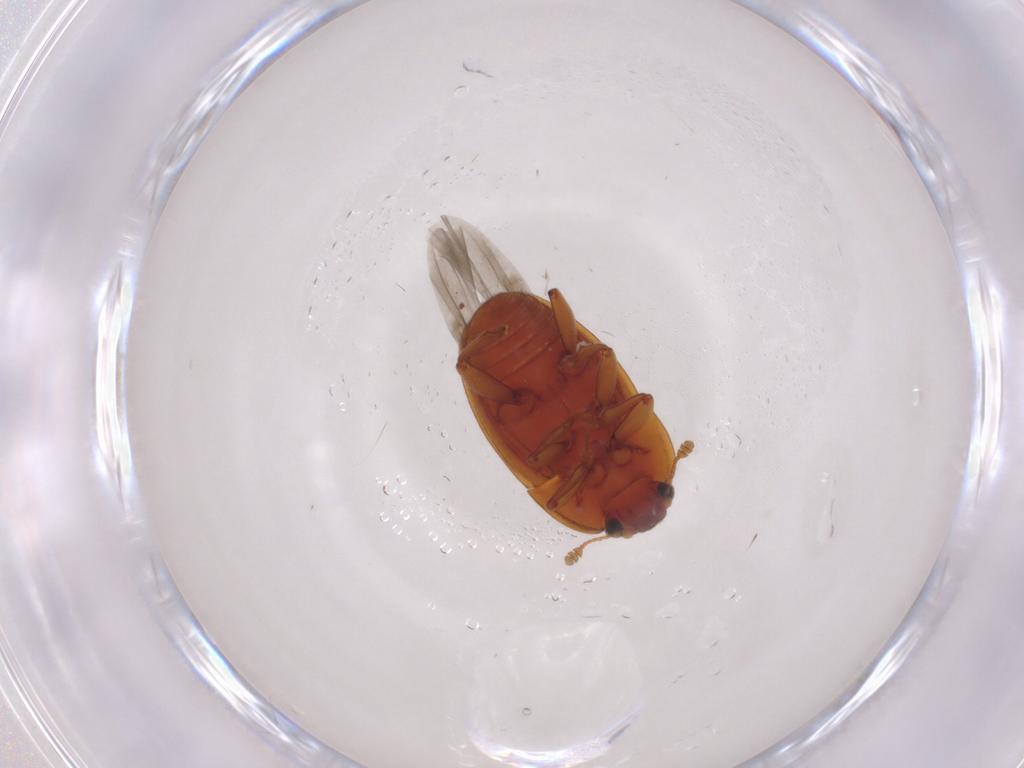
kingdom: Animalia
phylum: Arthropoda
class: Insecta
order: Coleoptera
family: Nitidulidae
